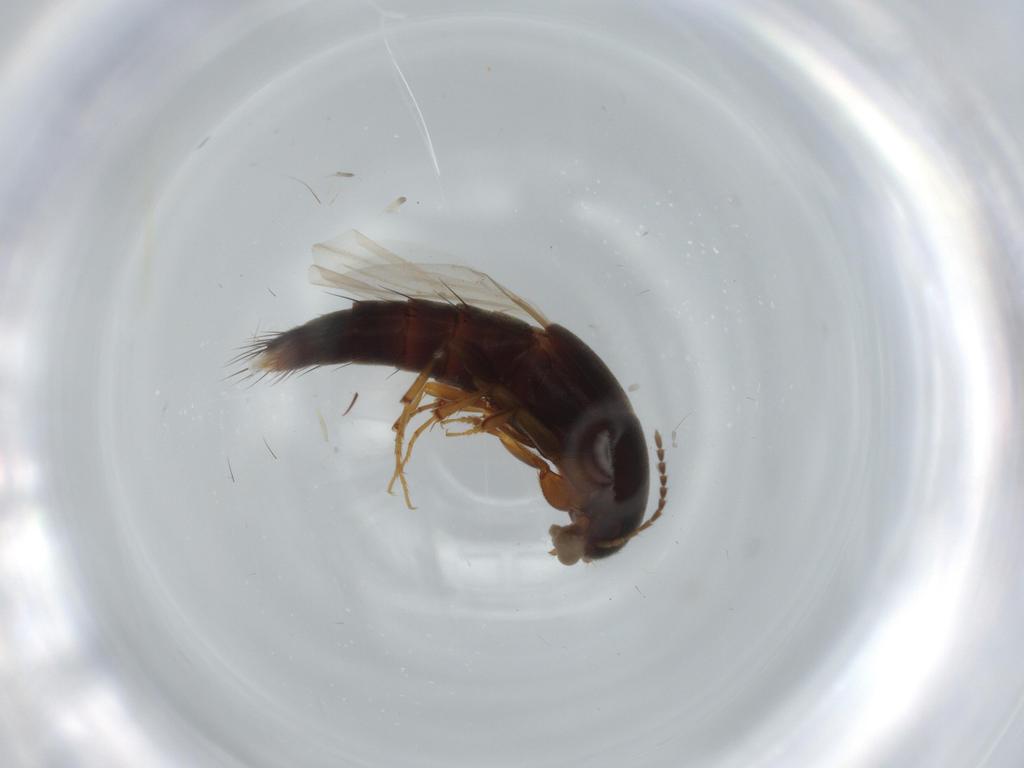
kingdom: Animalia
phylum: Arthropoda
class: Insecta
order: Coleoptera
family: Staphylinidae
